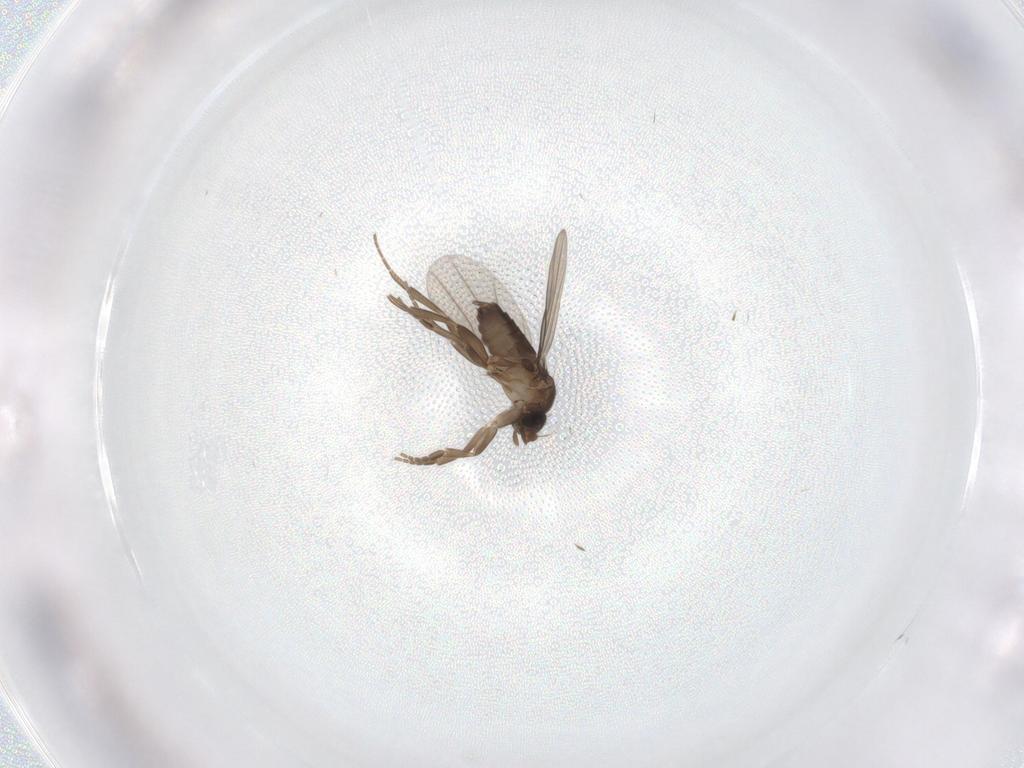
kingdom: Animalia
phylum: Arthropoda
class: Insecta
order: Diptera
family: Phoridae
